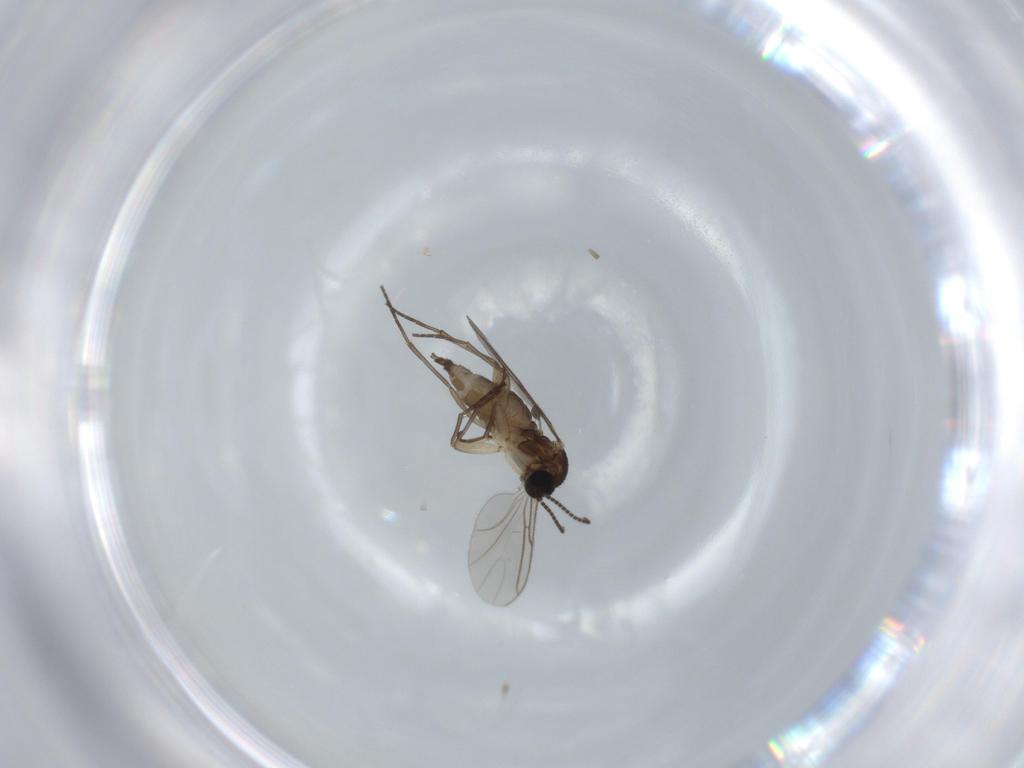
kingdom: Animalia
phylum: Arthropoda
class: Insecta
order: Diptera
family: Sciaridae
